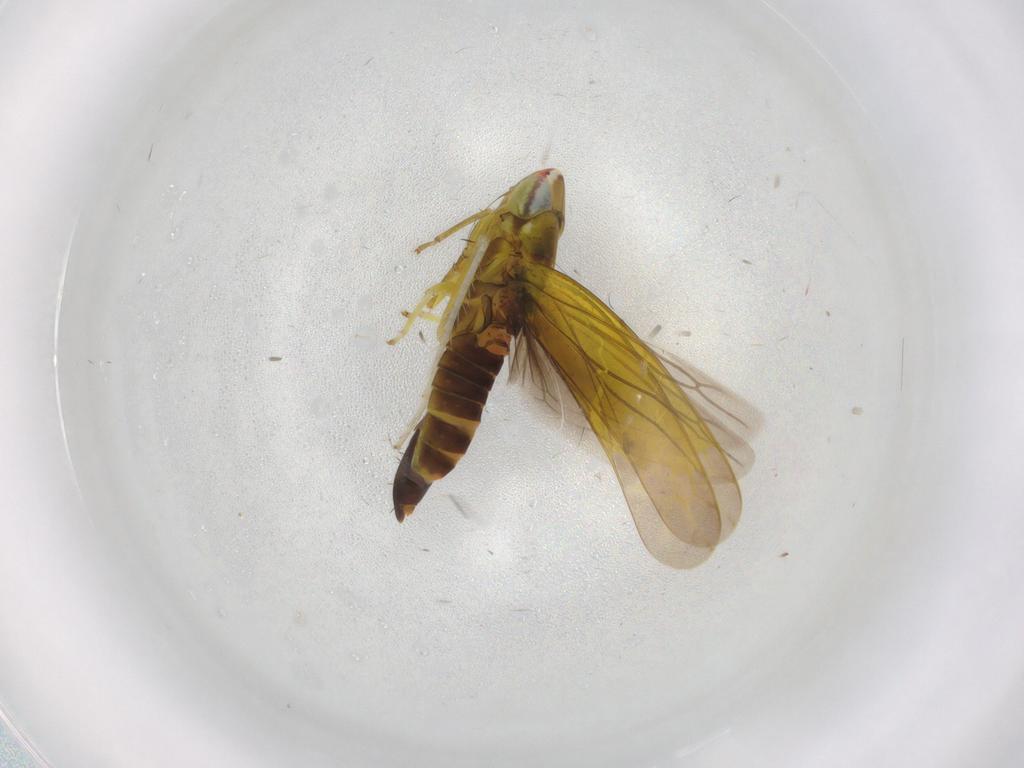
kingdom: Animalia
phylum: Arthropoda
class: Insecta
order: Hemiptera
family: Cicadellidae
